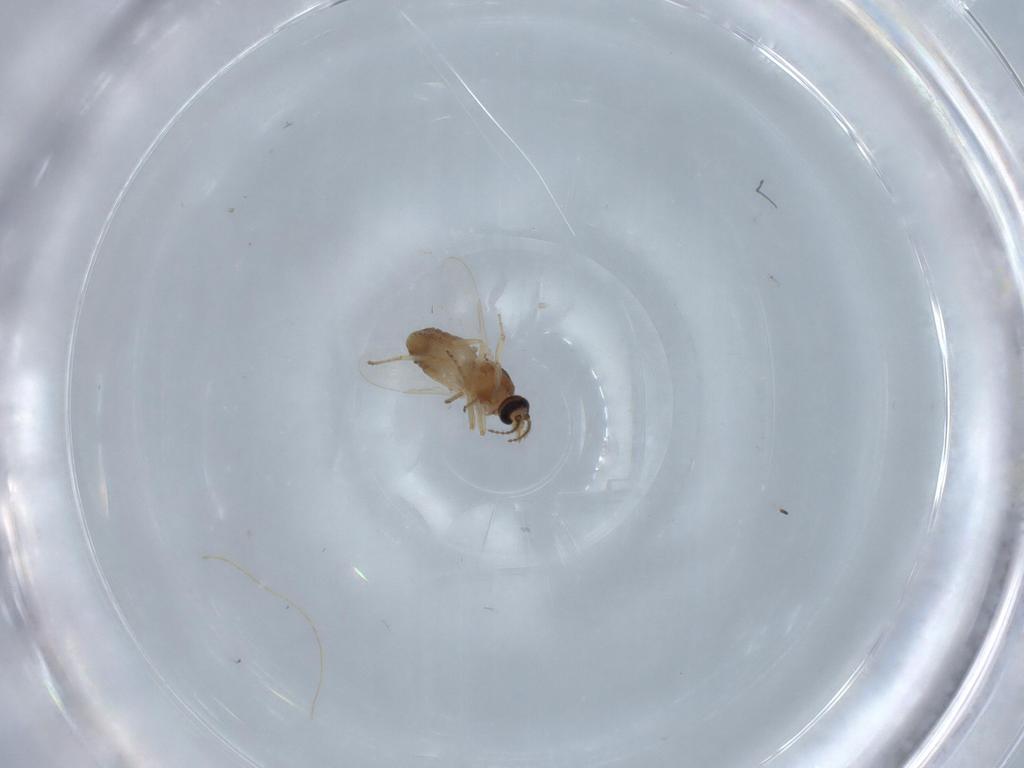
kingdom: Animalia
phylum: Arthropoda
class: Insecta
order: Diptera
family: Ceratopogonidae
